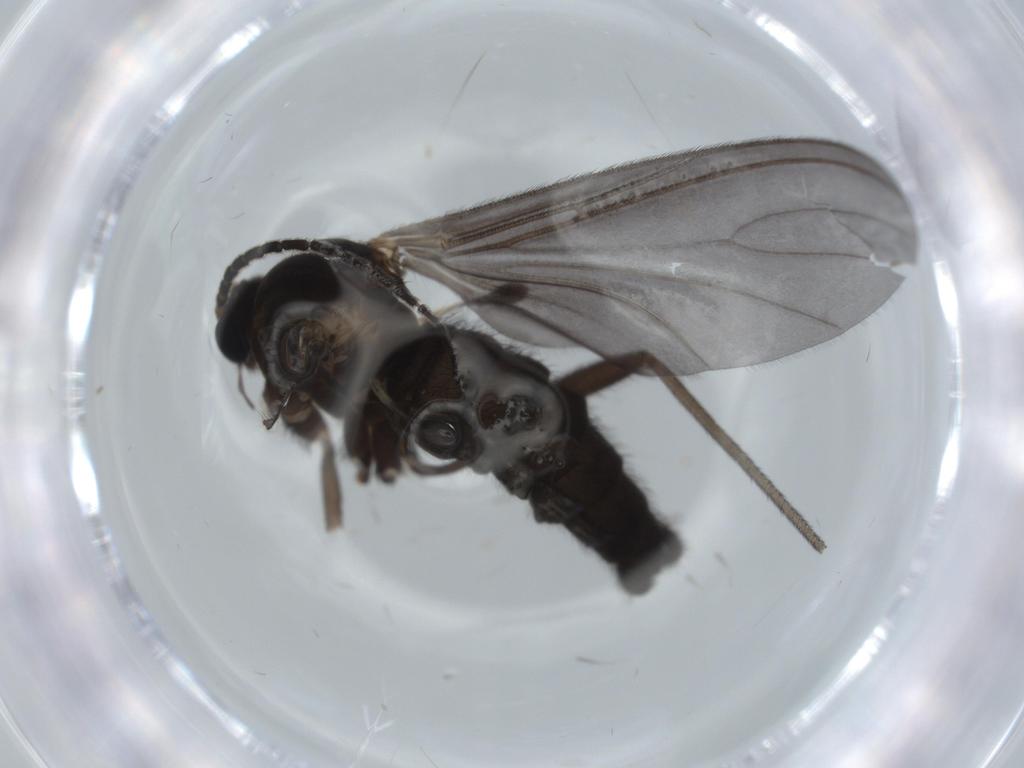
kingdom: Animalia
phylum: Arthropoda
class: Insecta
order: Diptera
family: Sciaridae
